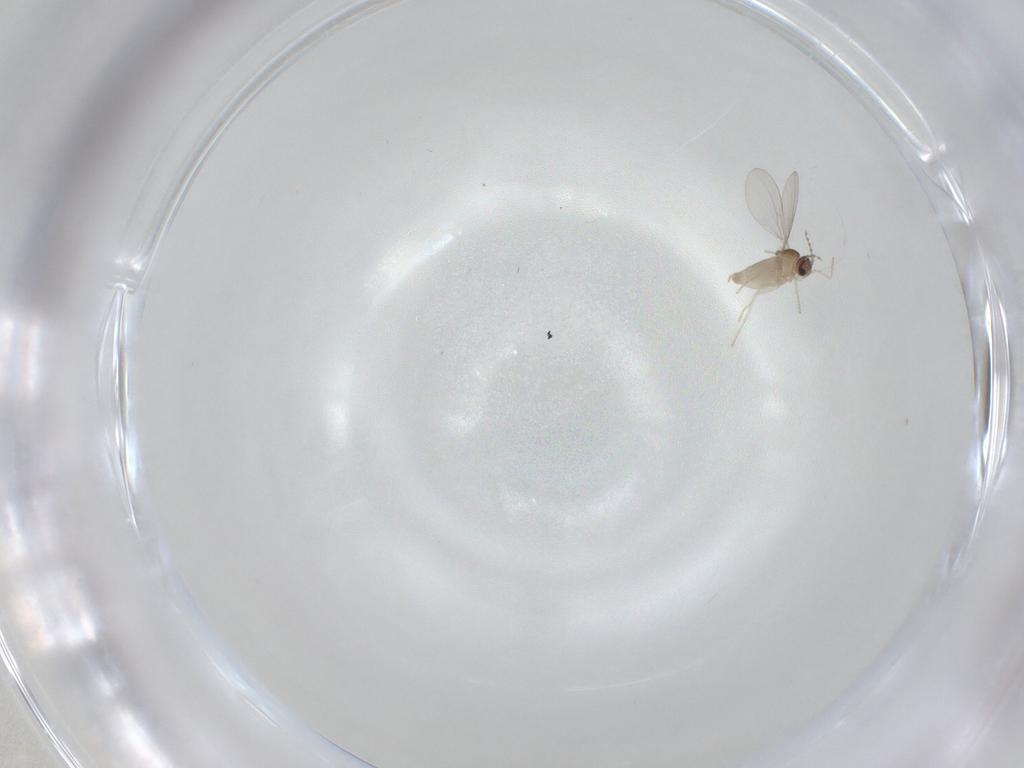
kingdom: Animalia
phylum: Arthropoda
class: Insecta
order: Diptera
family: Cecidomyiidae
